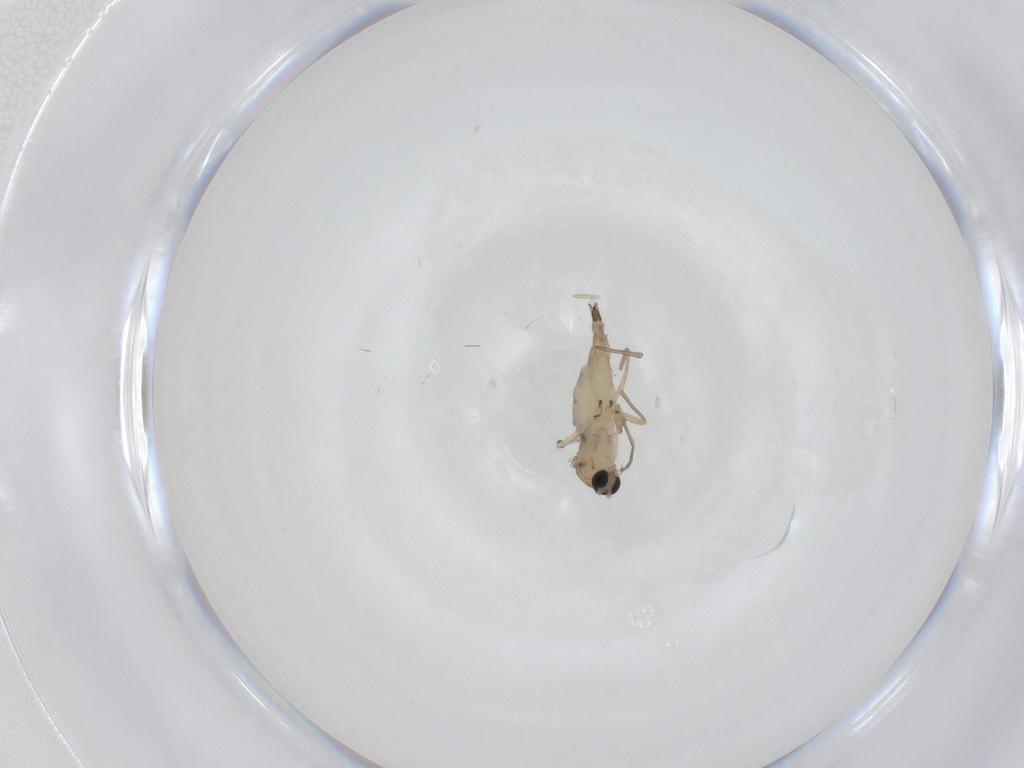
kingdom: Animalia
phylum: Arthropoda
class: Insecta
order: Diptera
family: Sciaridae
